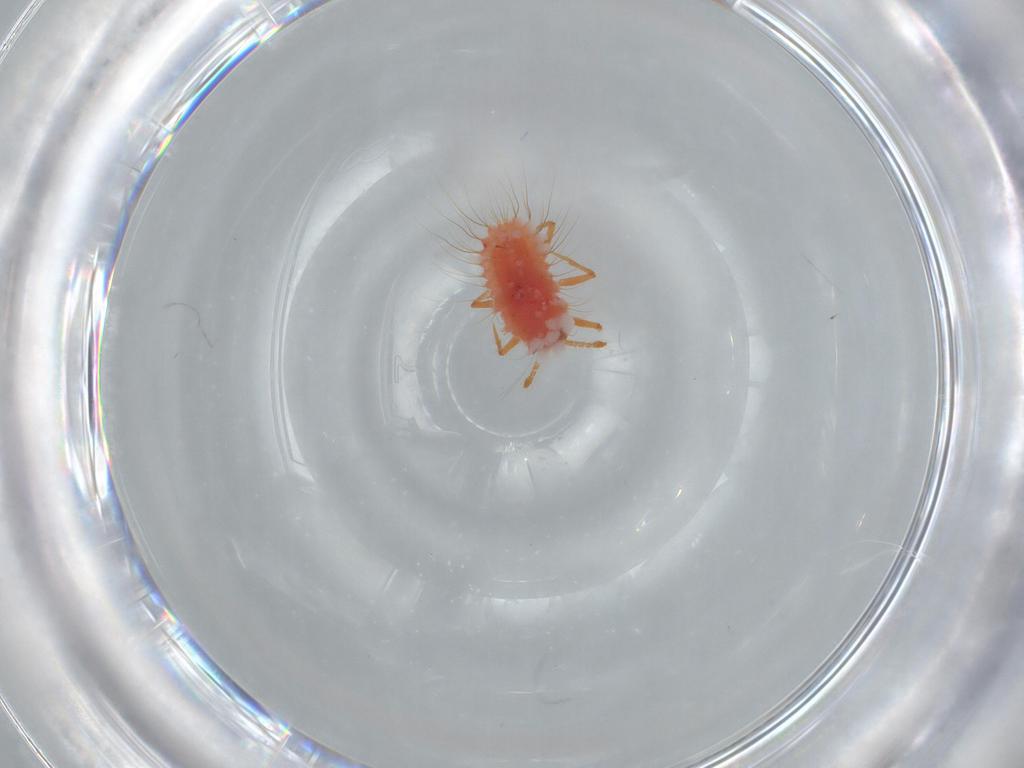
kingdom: Animalia
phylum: Arthropoda
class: Insecta
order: Hemiptera
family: Monophlebidae
